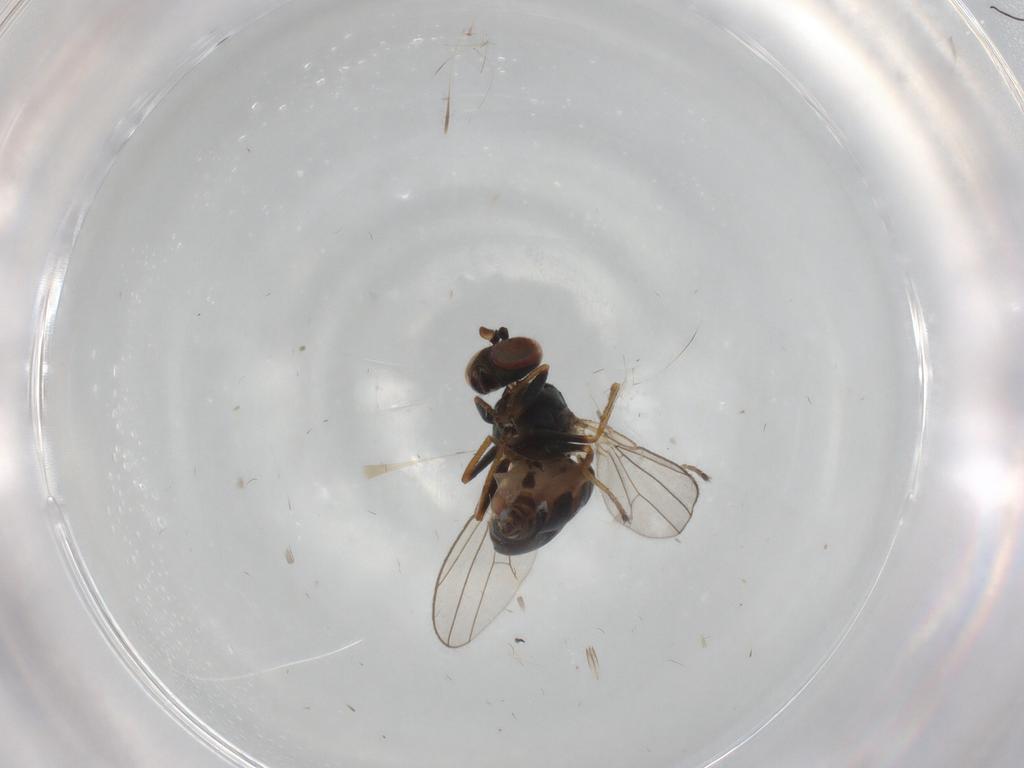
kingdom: Animalia
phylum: Arthropoda
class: Insecta
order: Diptera
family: Ephydridae
